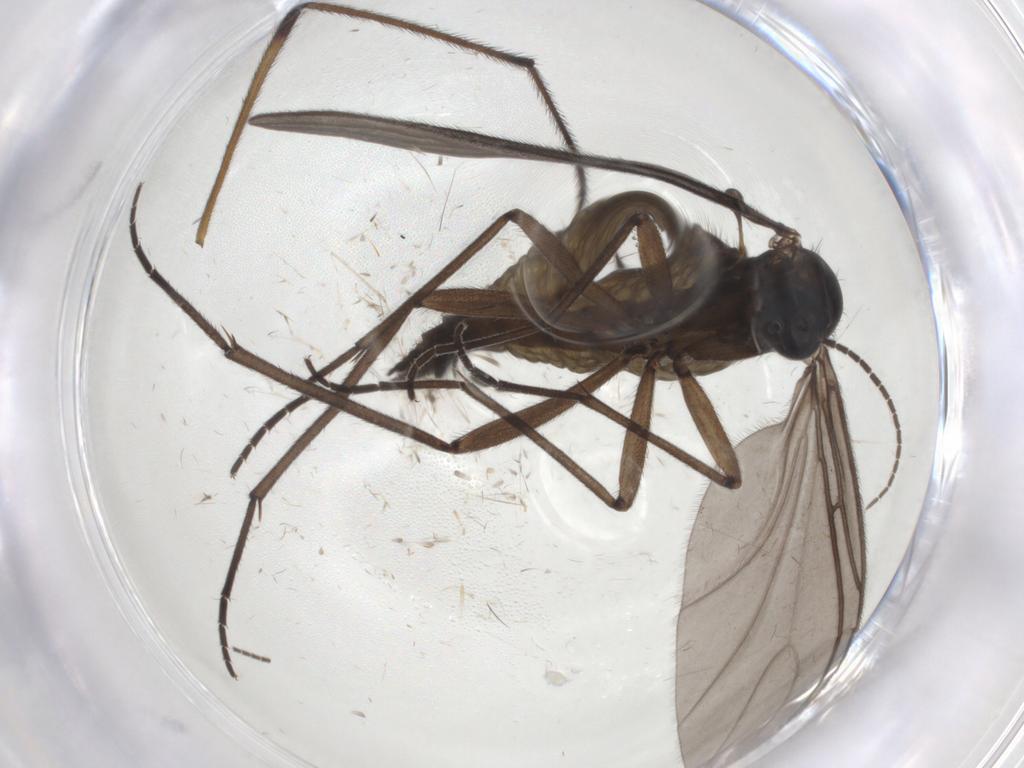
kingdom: Animalia
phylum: Arthropoda
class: Insecta
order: Diptera
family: Sciaridae
